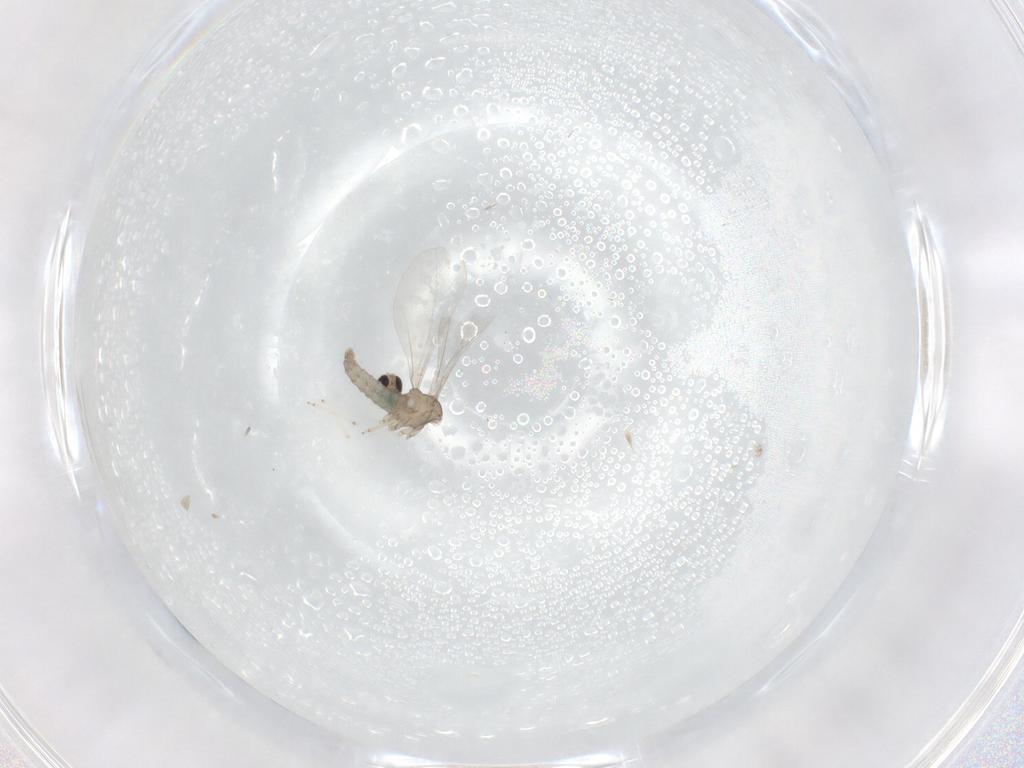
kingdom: Animalia
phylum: Arthropoda
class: Insecta
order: Diptera
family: Cecidomyiidae
